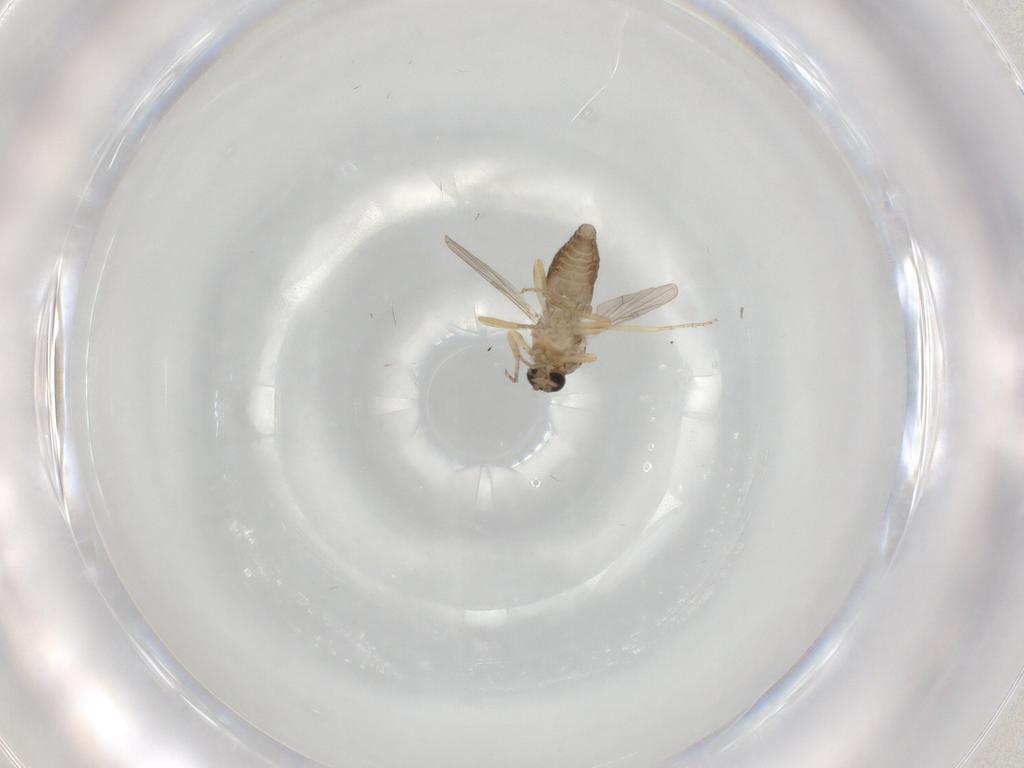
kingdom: Animalia
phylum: Arthropoda
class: Insecta
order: Diptera
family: Ceratopogonidae
